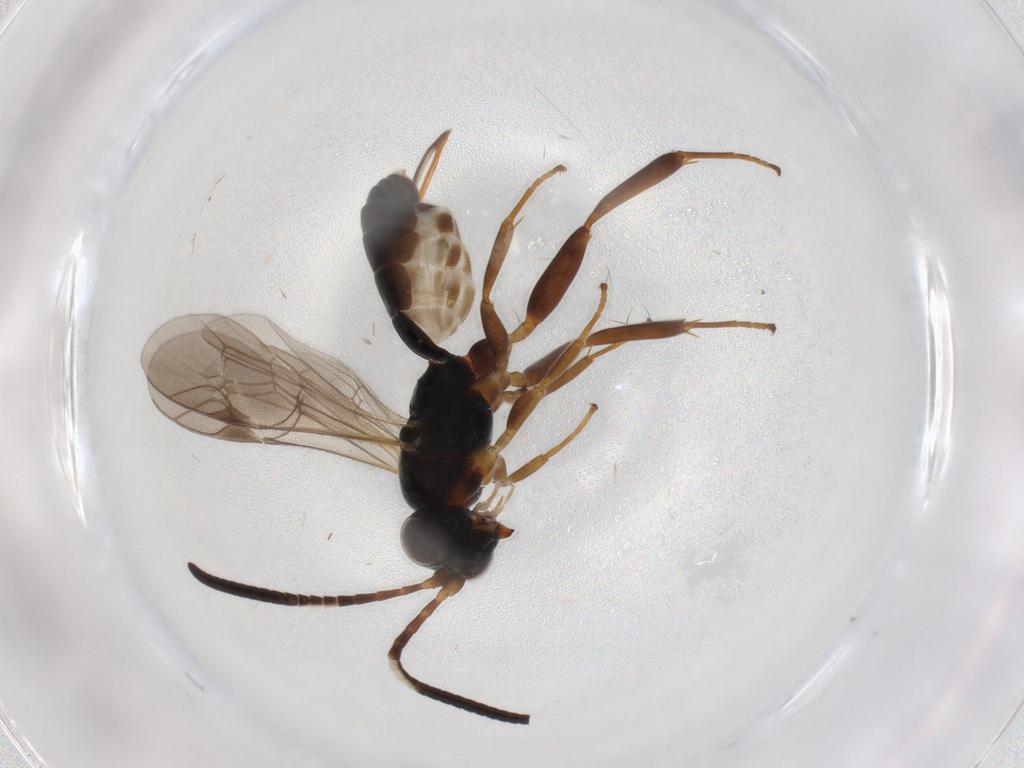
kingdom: Animalia
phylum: Arthropoda
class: Insecta
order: Hymenoptera
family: Ichneumonidae
